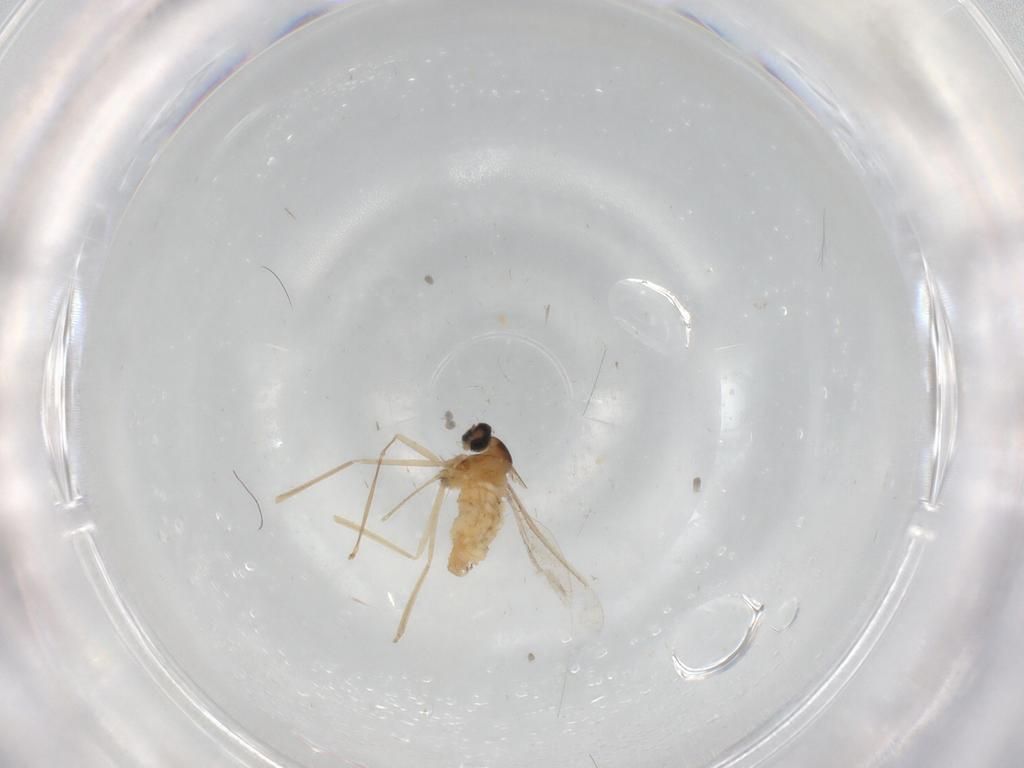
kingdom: Animalia
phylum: Arthropoda
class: Insecta
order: Diptera
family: Cecidomyiidae
